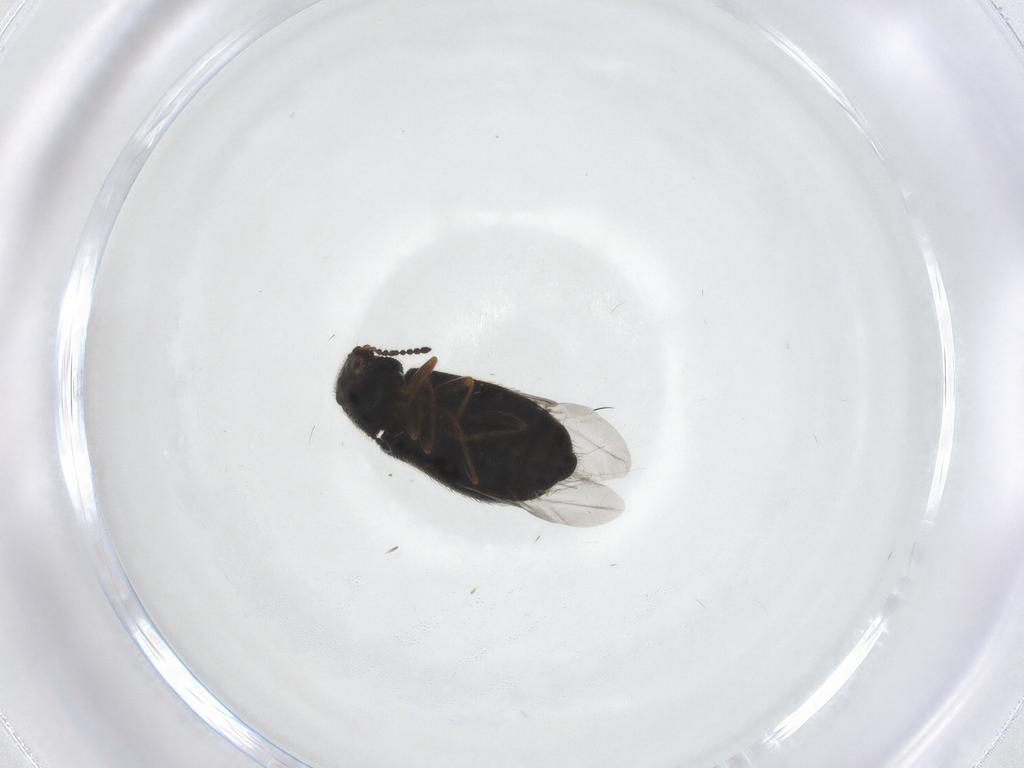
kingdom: Animalia
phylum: Arthropoda
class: Insecta
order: Coleoptera
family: Melyridae
